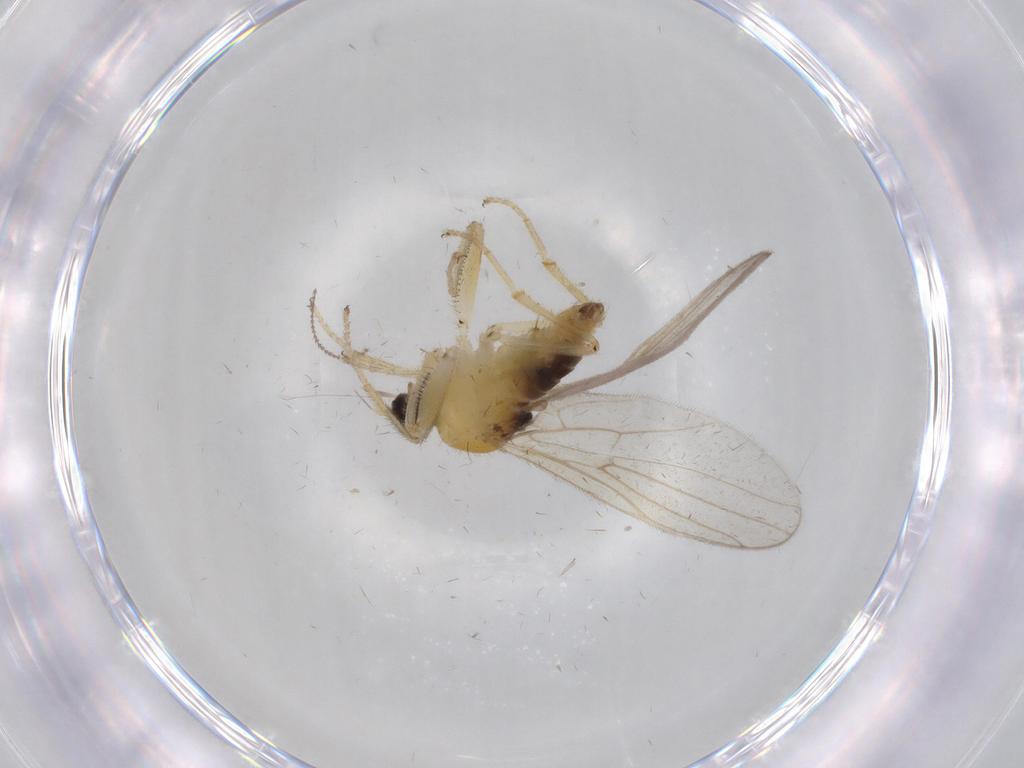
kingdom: Animalia
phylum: Arthropoda
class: Insecta
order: Diptera
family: Hybotidae
